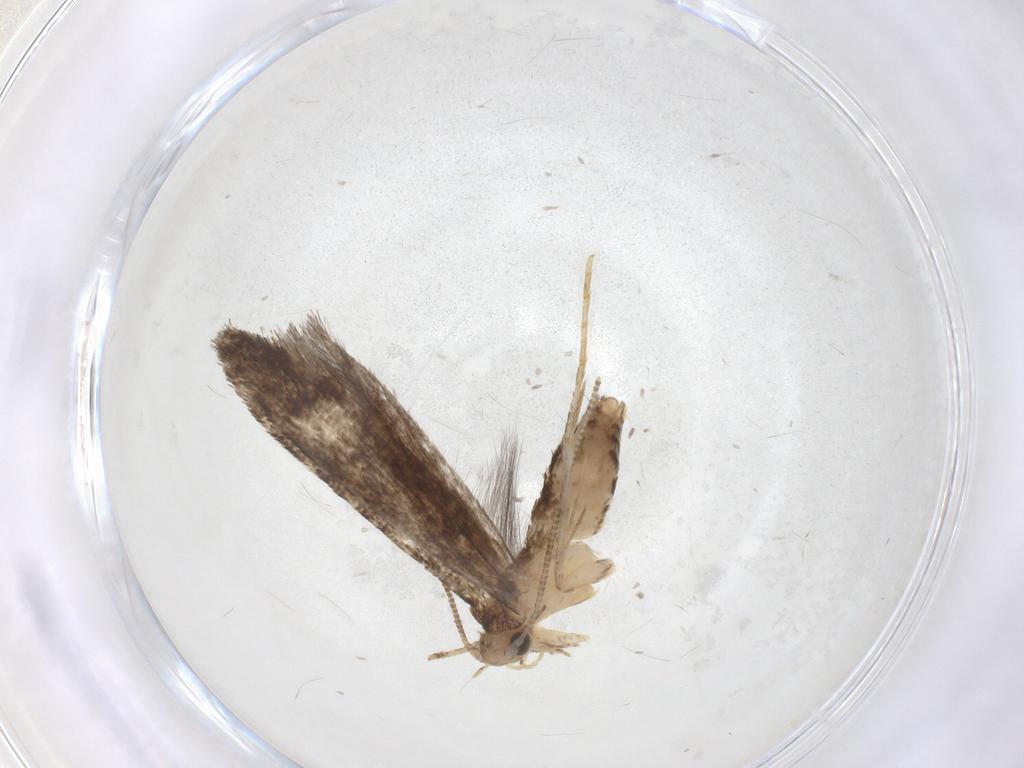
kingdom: Animalia
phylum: Arthropoda
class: Insecta
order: Lepidoptera
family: Tineidae
